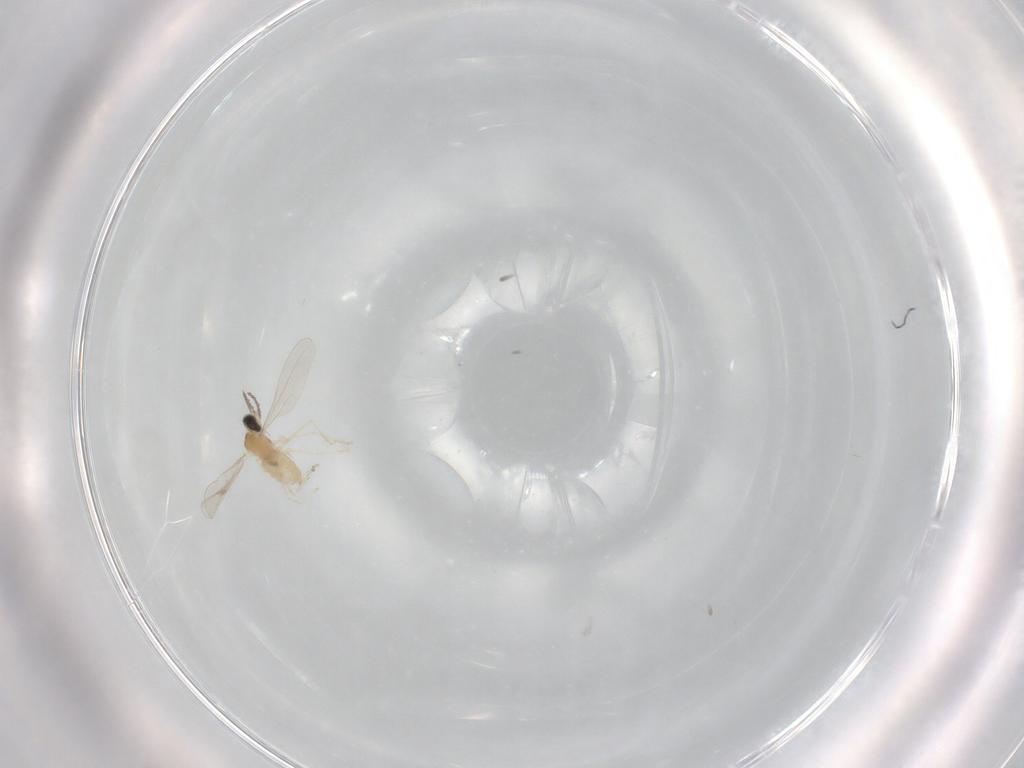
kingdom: Animalia
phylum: Arthropoda
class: Insecta
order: Diptera
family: Cecidomyiidae
